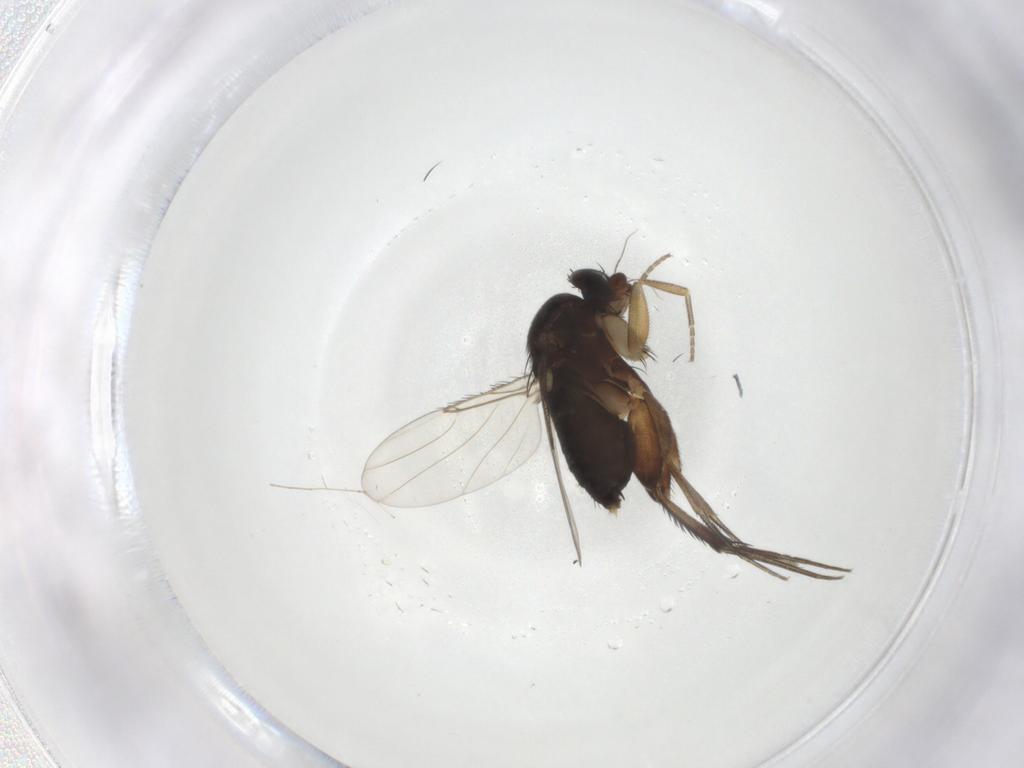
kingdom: Animalia
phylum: Arthropoda
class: Insecta
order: Diptera
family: Phoridae
